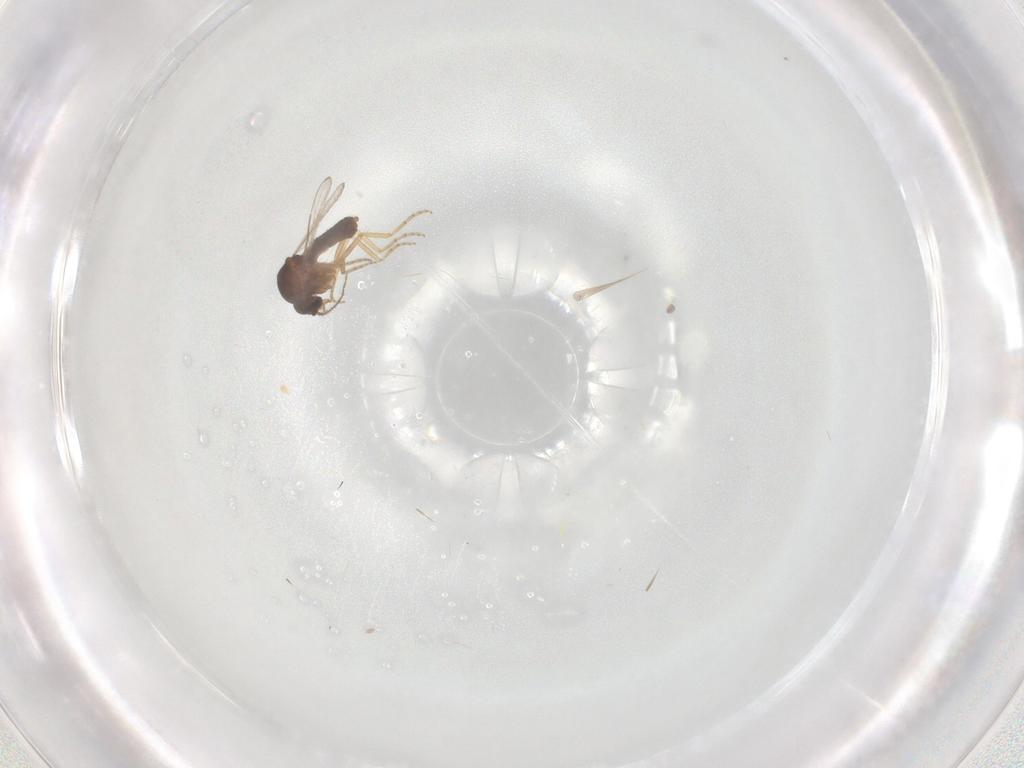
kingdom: Animalia
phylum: Arthropoda
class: Insecta
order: Diptera
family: Ceratopogonidae
